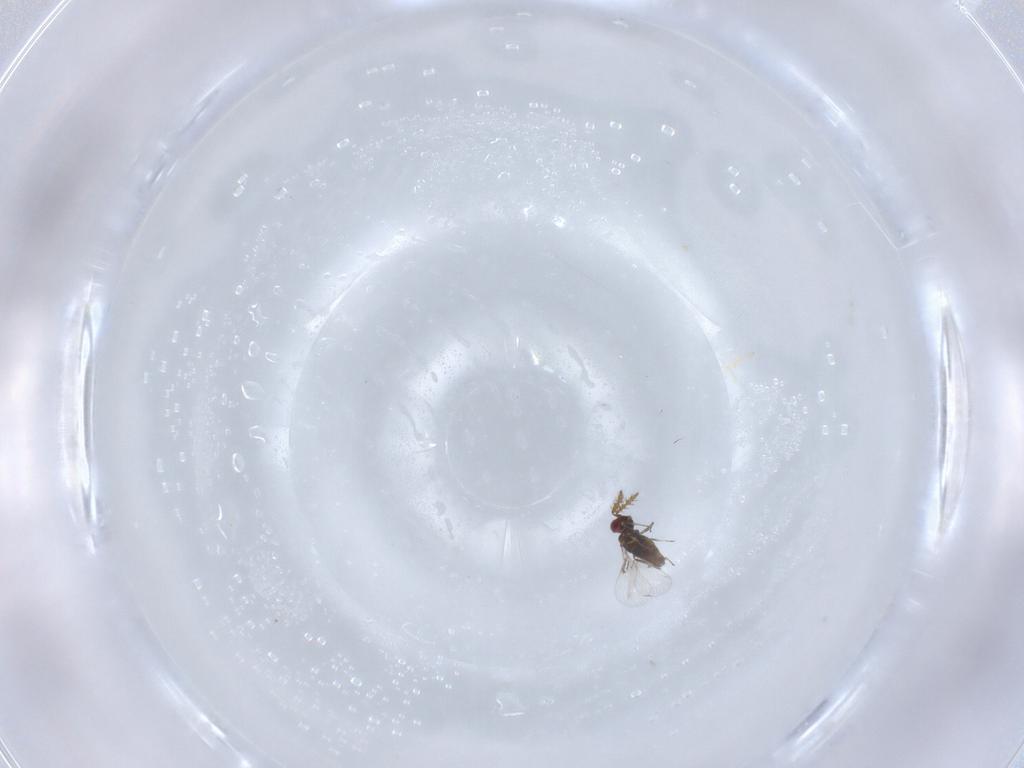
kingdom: Animalia
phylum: Arthropoda
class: Insecta
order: Hymenoptera
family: Agaonidae
